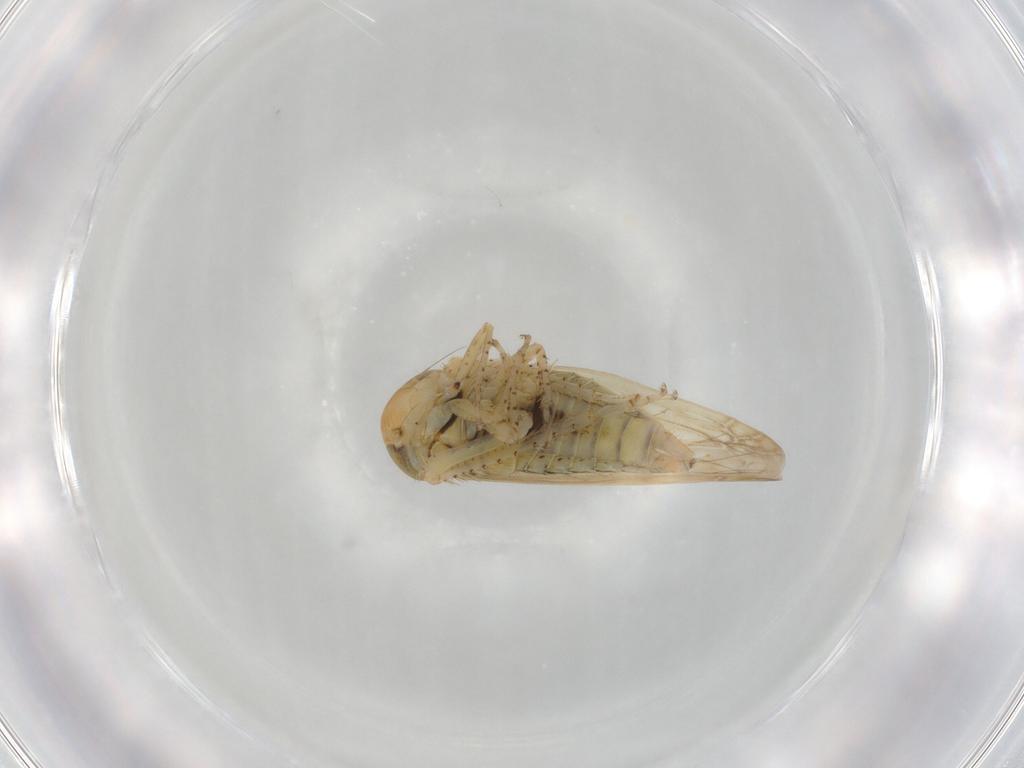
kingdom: Animalia
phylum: Arthropoda
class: Insecta
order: Hemiptera
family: Cicadellidae
